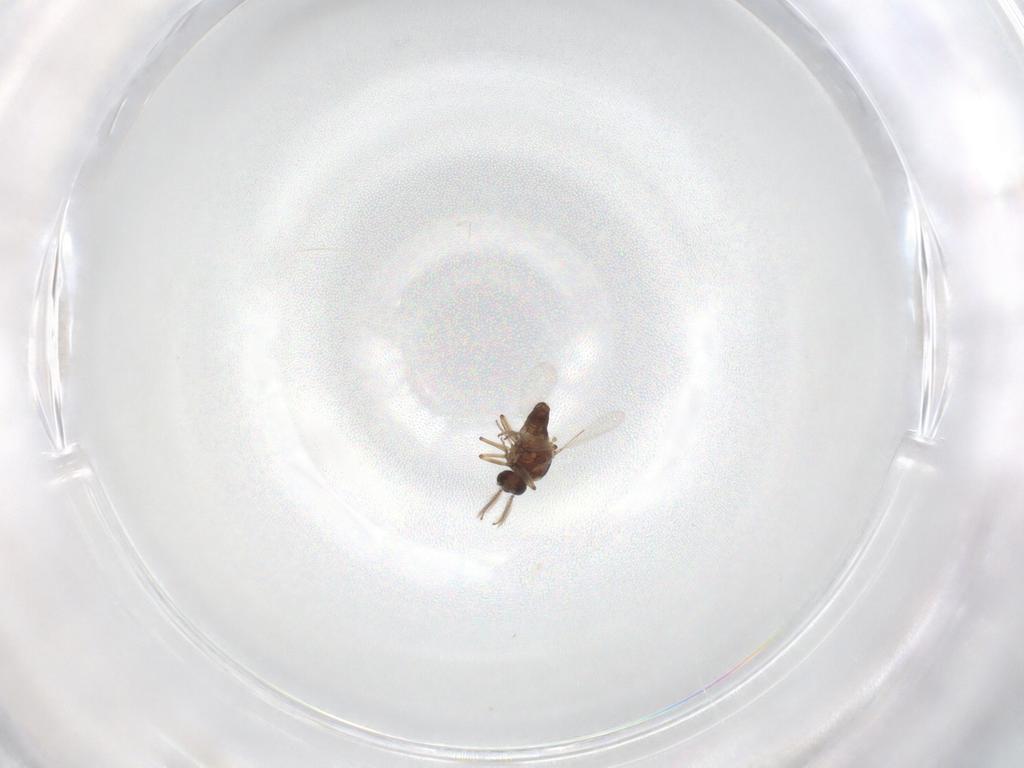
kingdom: Animalia
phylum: Arthropoda
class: Insecta
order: Diptera
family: Ceratopogonidae
